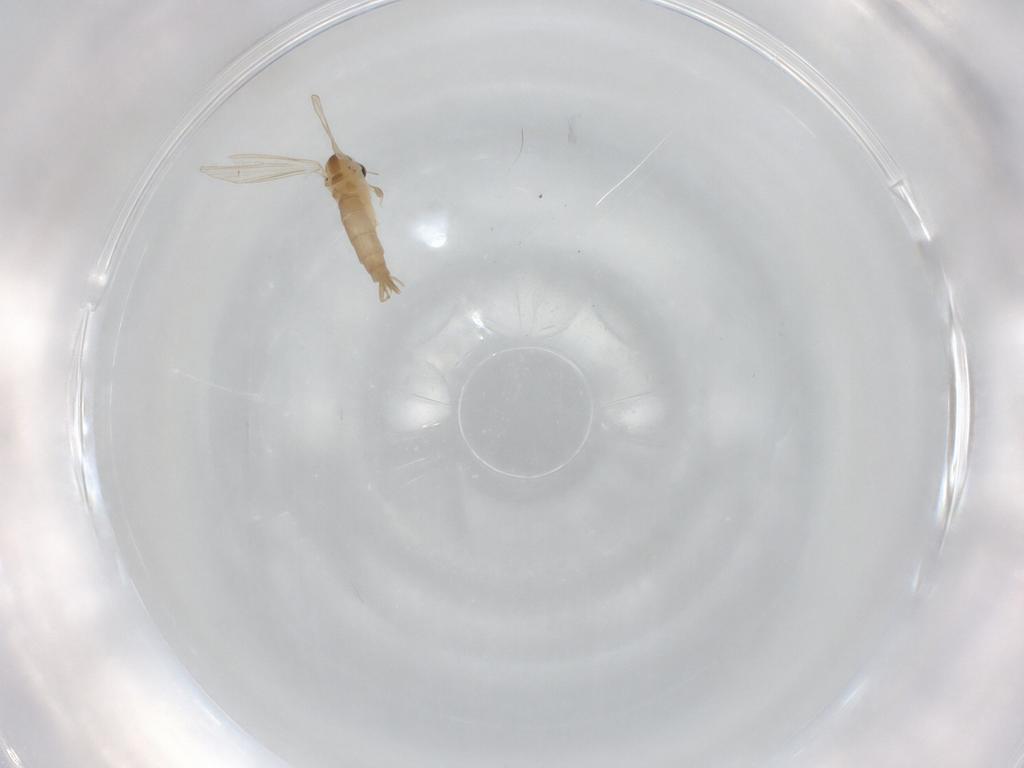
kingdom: Animalia
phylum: Arthropoda
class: Insecta
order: Diptera
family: Psychodidae
